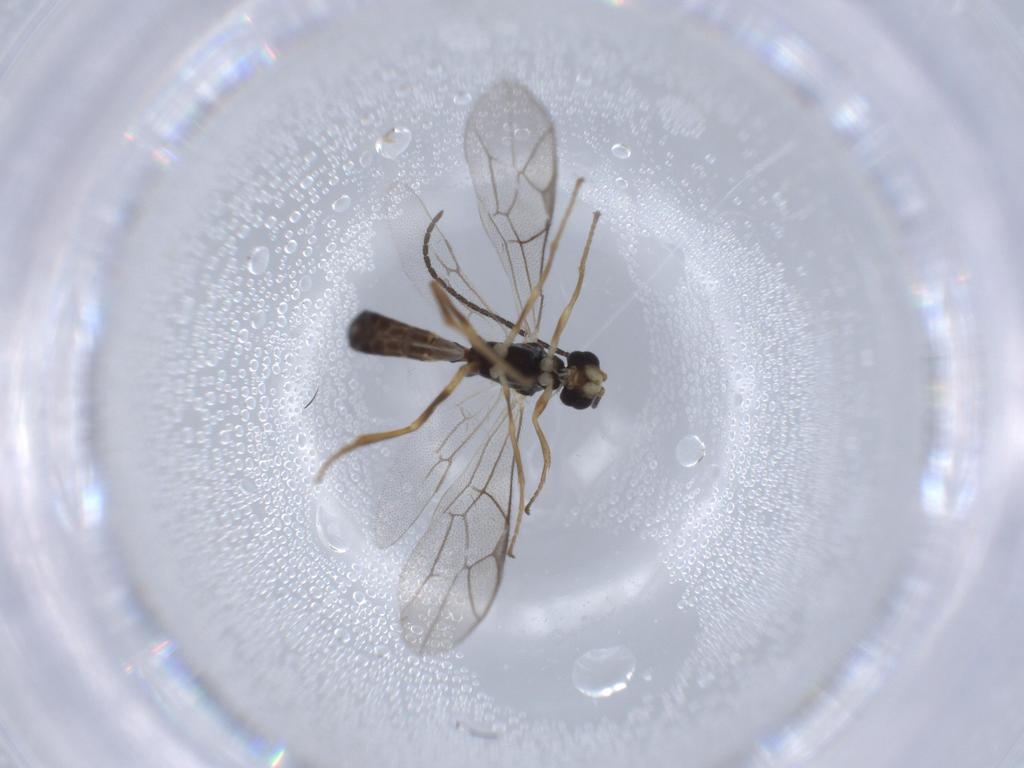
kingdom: Animalia
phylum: Arthropoda
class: Insecta
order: Hymenoptera
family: Ichneumonidae
